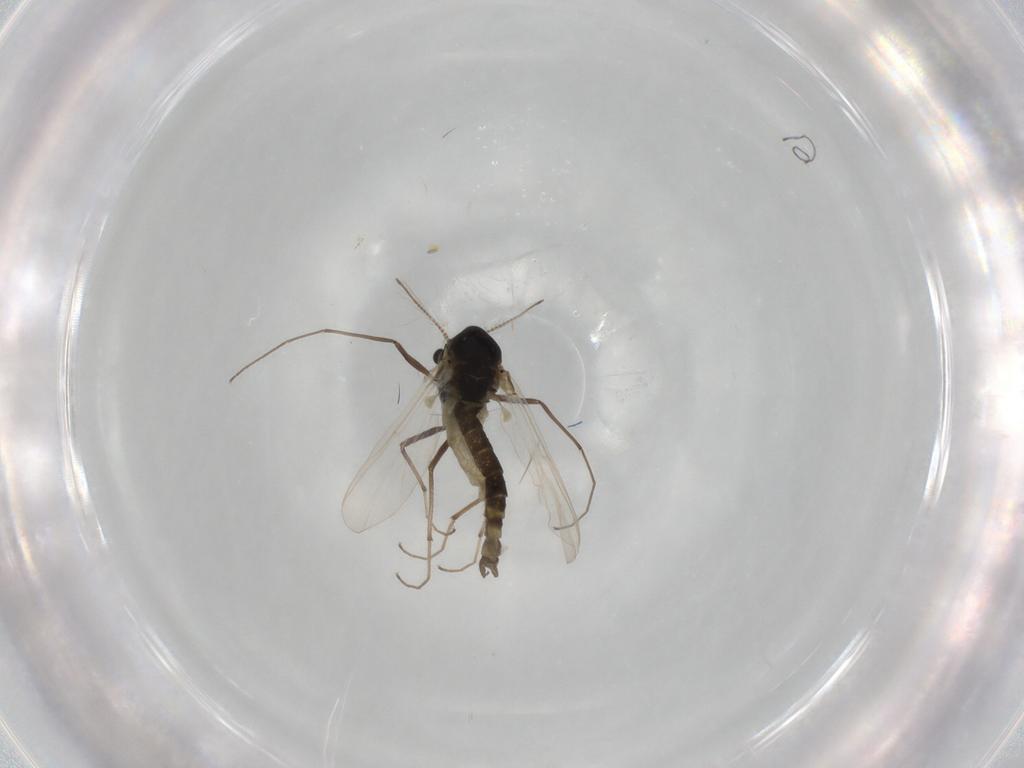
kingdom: Animalia
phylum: Arthropoda
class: Insecta
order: Diptera
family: Hybotidae
